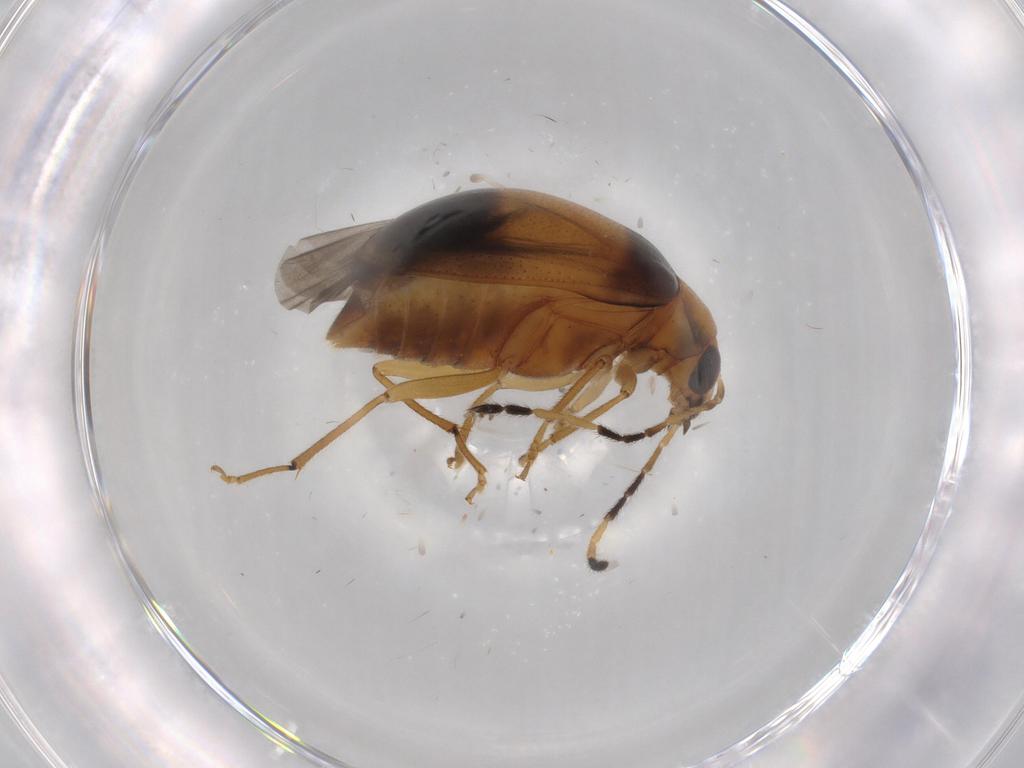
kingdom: Animalia
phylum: Arthropoda
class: Insecta
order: Coleoptera
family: Chrysomelidae
